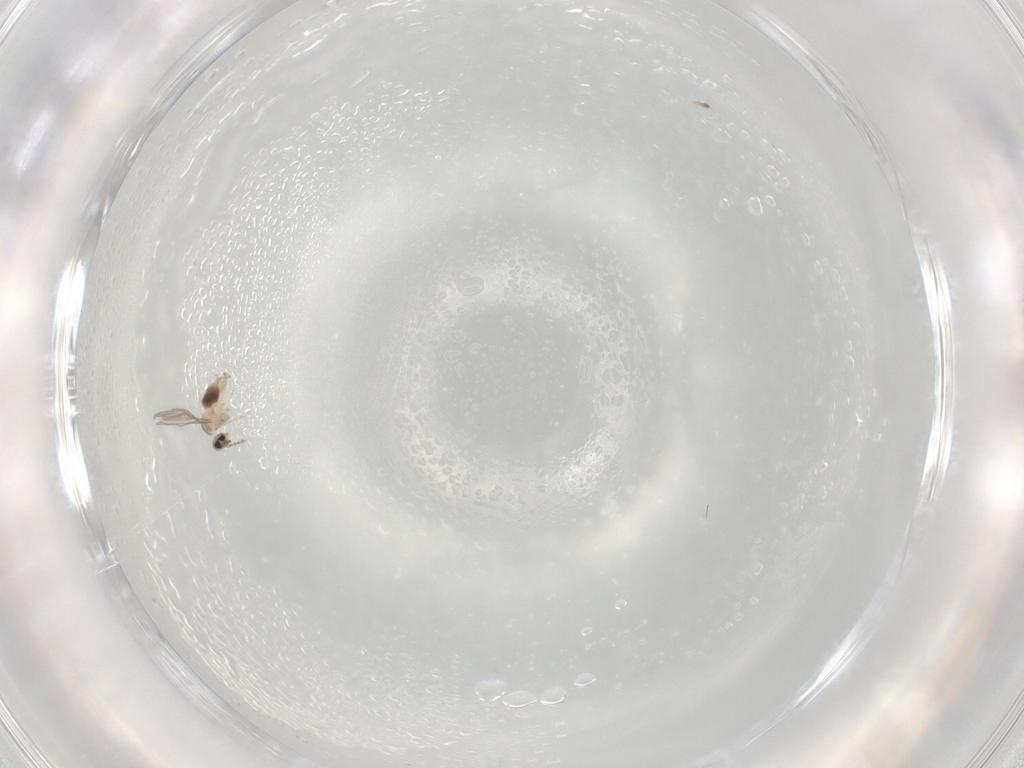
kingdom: Animalia
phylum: Arthropoda
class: Insecta
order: Diptera
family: Cecidomyiidae
